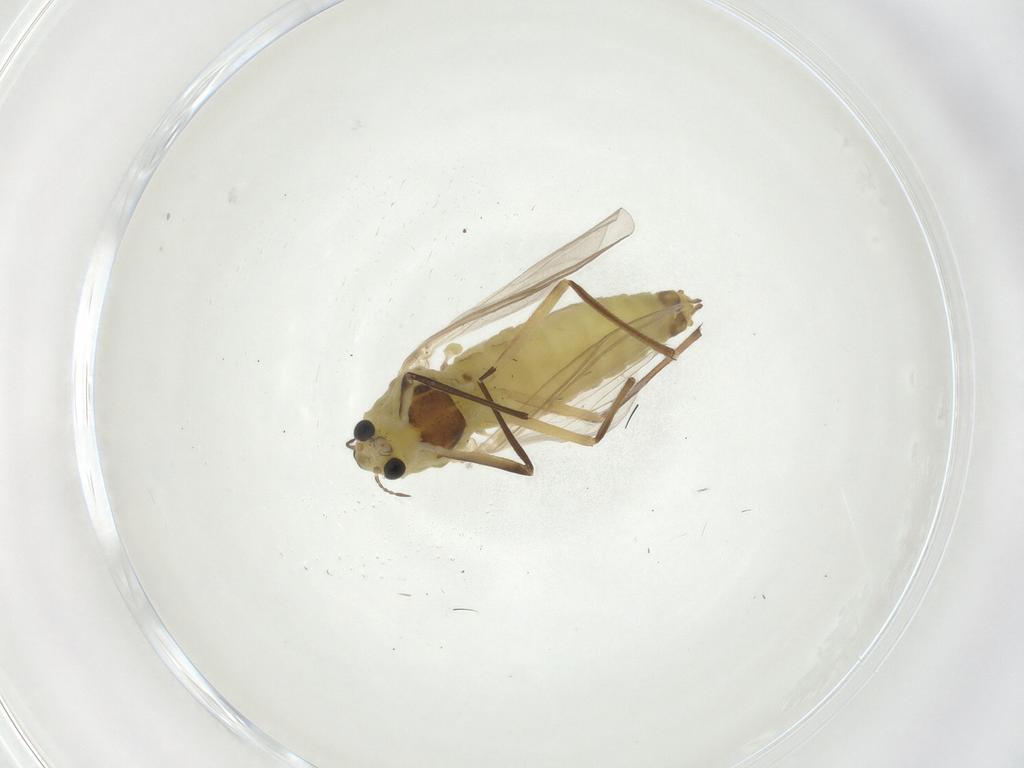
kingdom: Animalia
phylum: Arthropoda
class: Insecta
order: Diptera
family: Chironomidae
